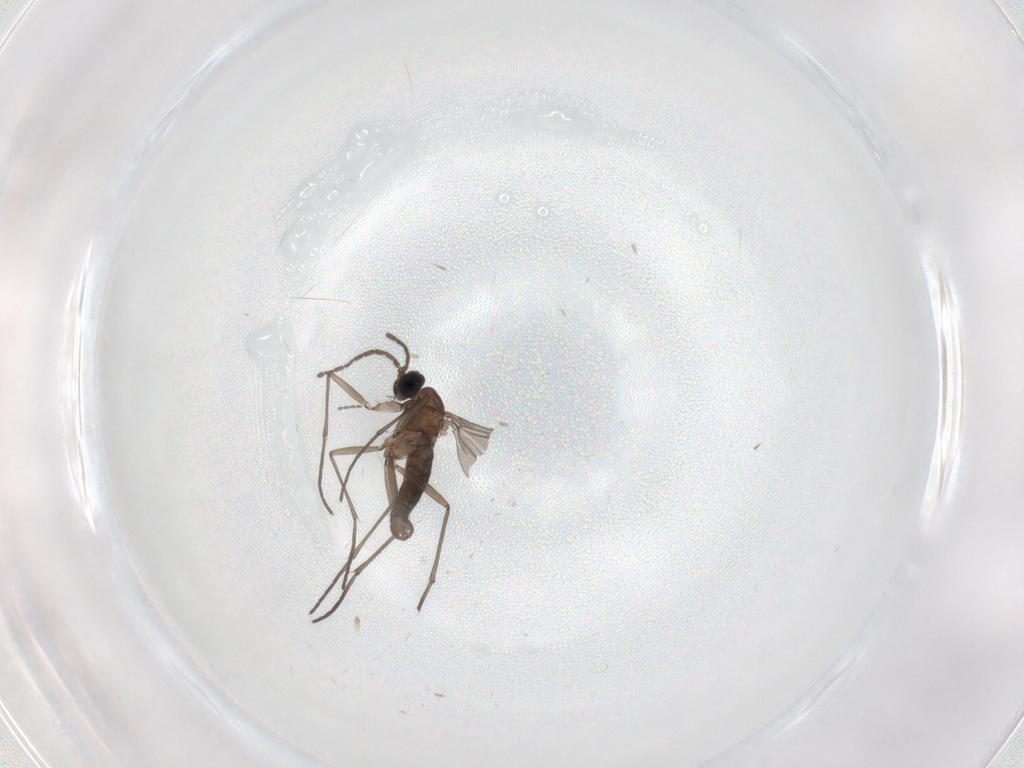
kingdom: Animalia
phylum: Arthropoda
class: Insecta
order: Diptera
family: Sciaridae
